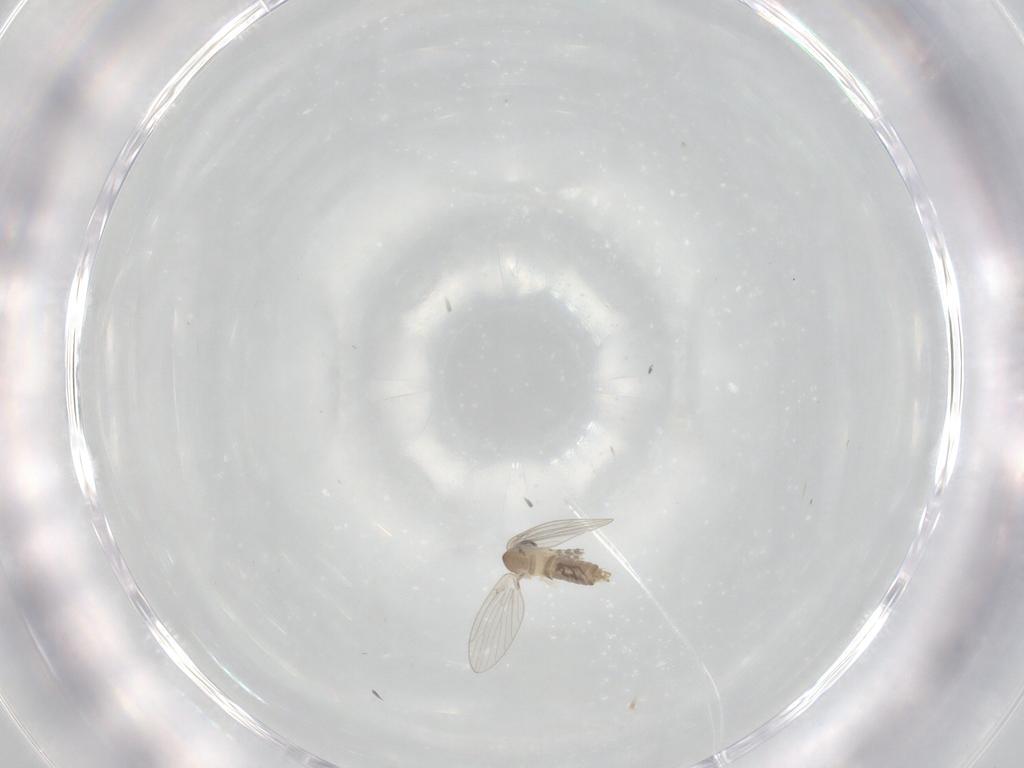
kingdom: Animalia
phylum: Arthropoda
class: Insecta
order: Diptera
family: Psychodidae
